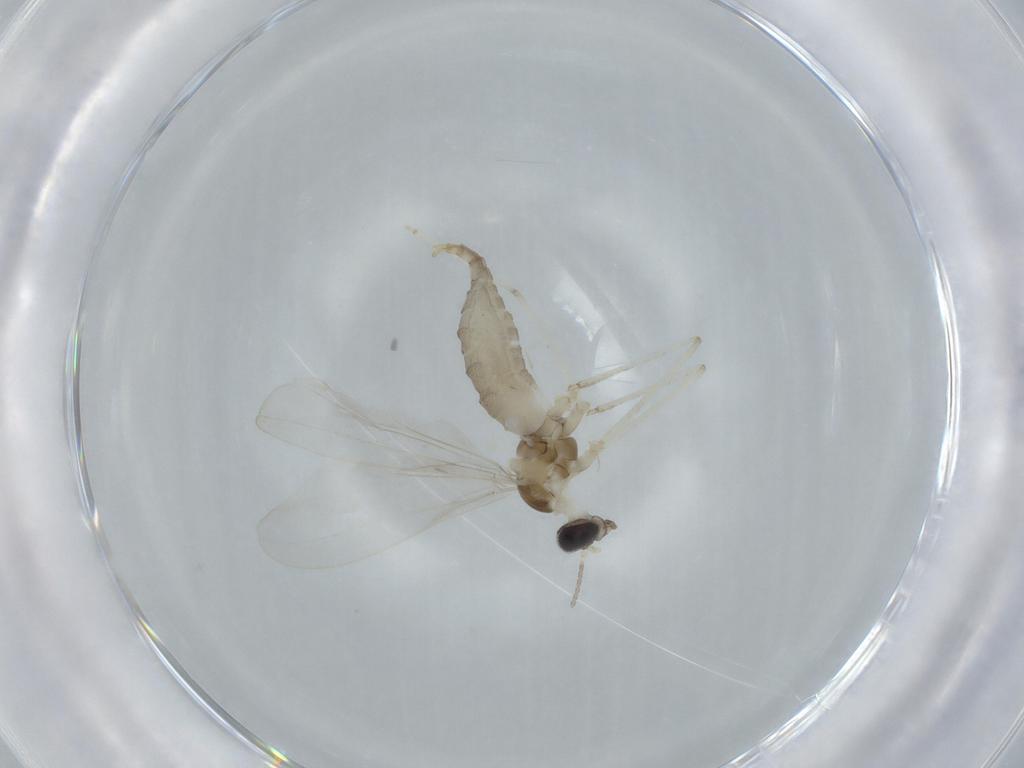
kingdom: Animalia
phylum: Arthropoda
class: Insecta
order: Diptera
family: Cecidomyiidae
